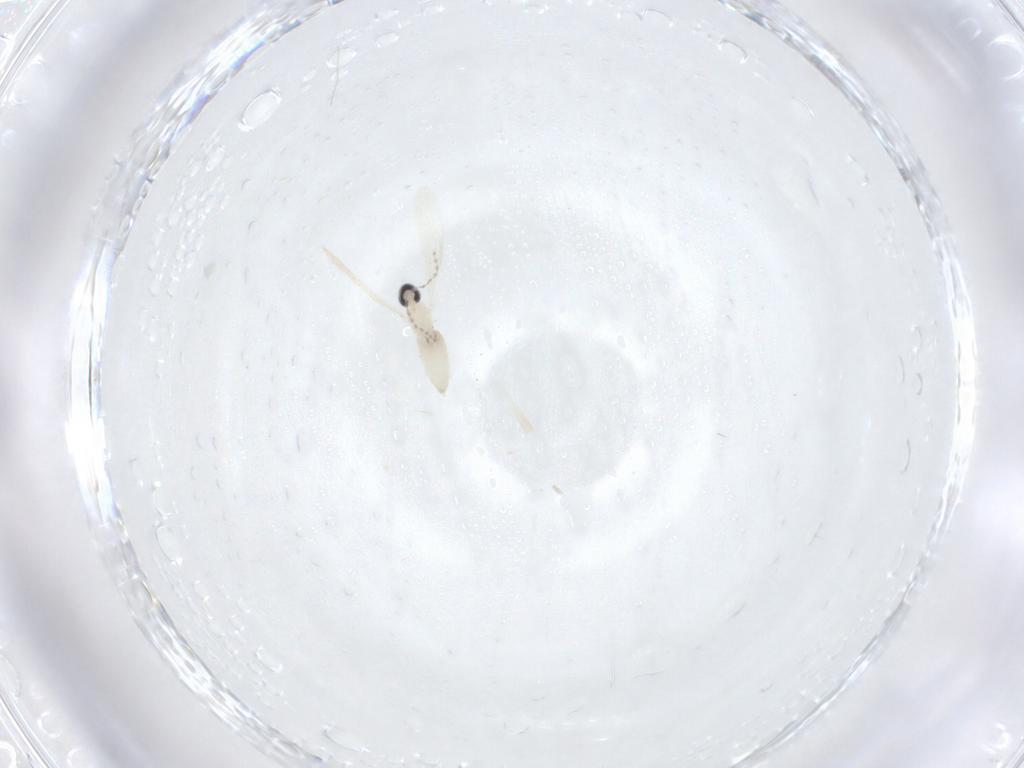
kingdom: Animalia
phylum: Arthropoda
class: Insecta
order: Diptera
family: Cecidomyiidae
